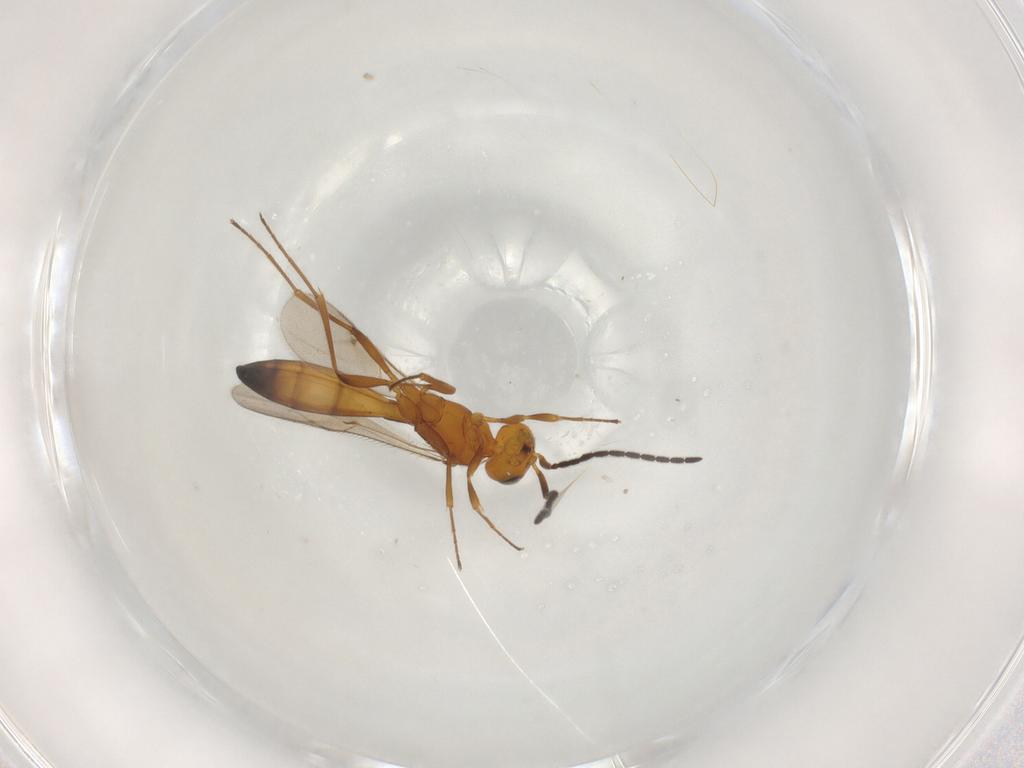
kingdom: Animalia
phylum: Arthropoda
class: Insecta
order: Hymenoptera
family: Scelionidae
